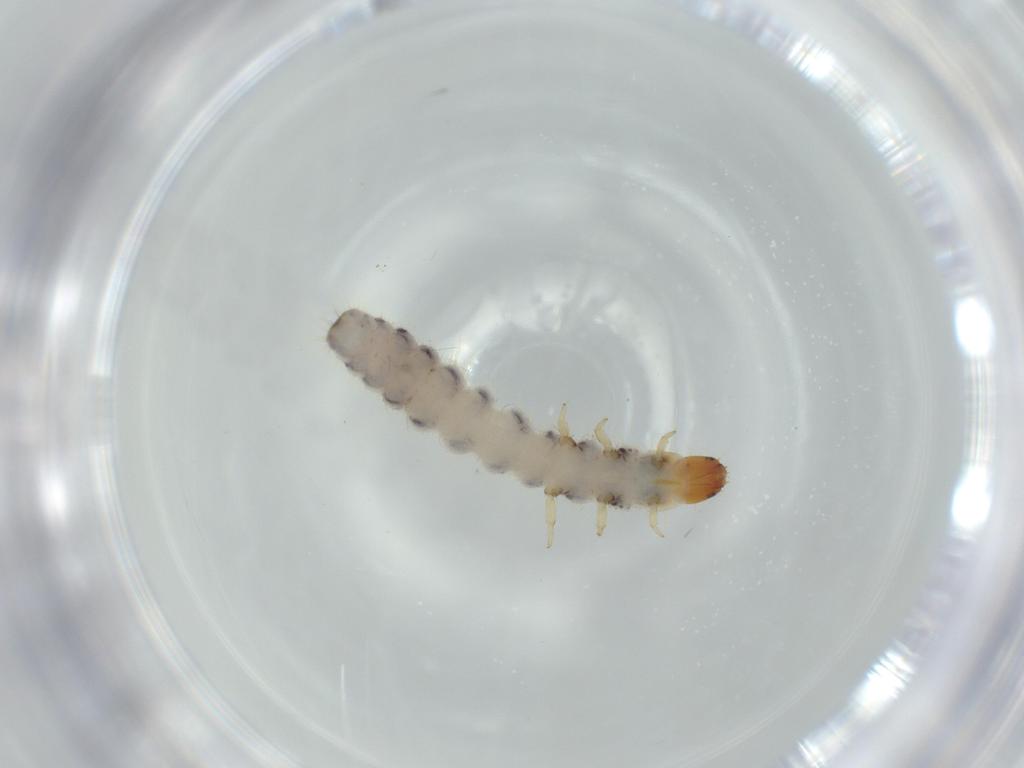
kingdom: Animalia
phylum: Arthropoda
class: Insecta
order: Coleoptera
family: Cleridae
